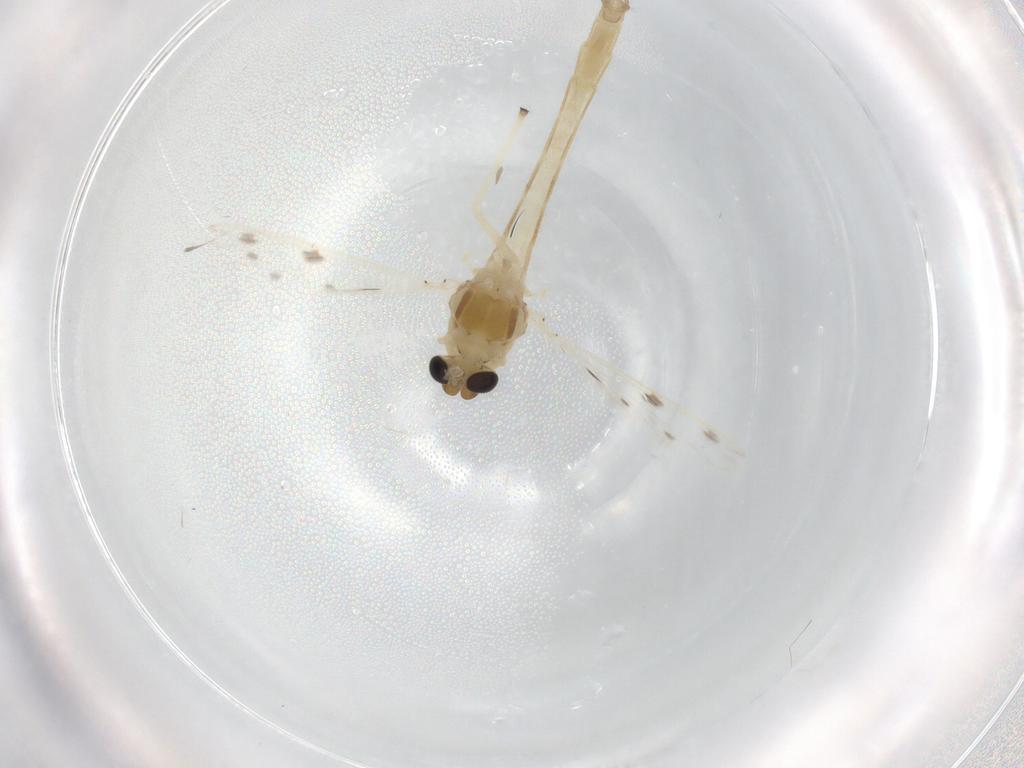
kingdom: Animalia
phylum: Arthropoda
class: Insecta
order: Diptera
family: Chironomidae
